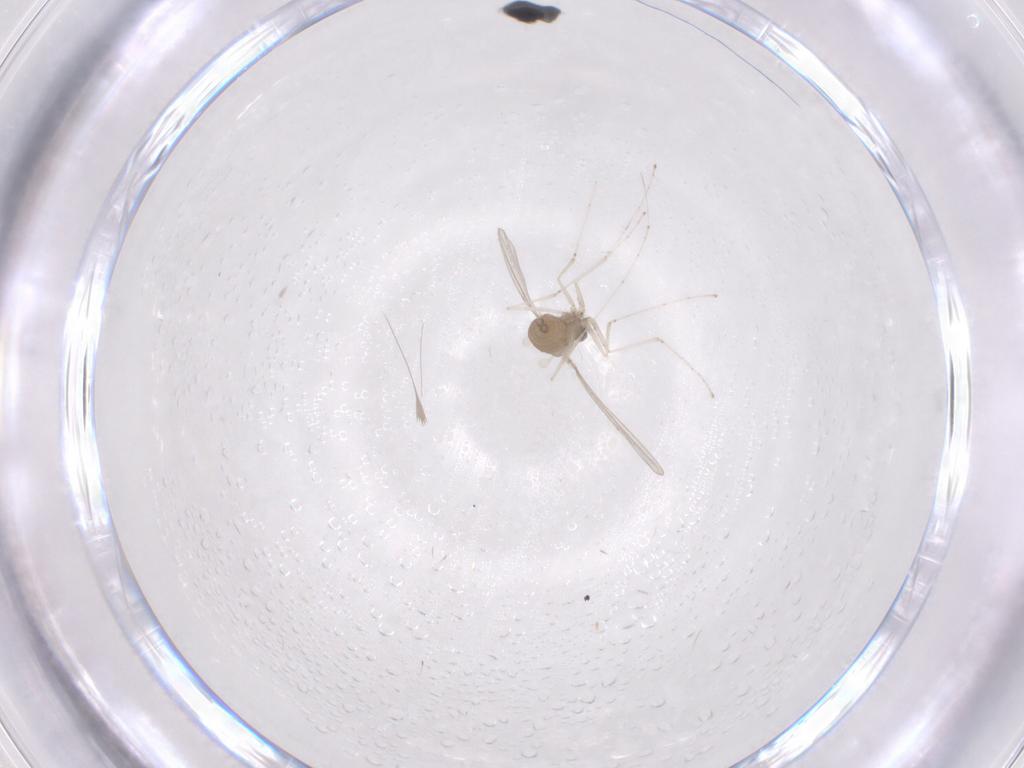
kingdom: Animalia
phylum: Arthropoda
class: Insecta
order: Diptera
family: Cecidomyiidae
